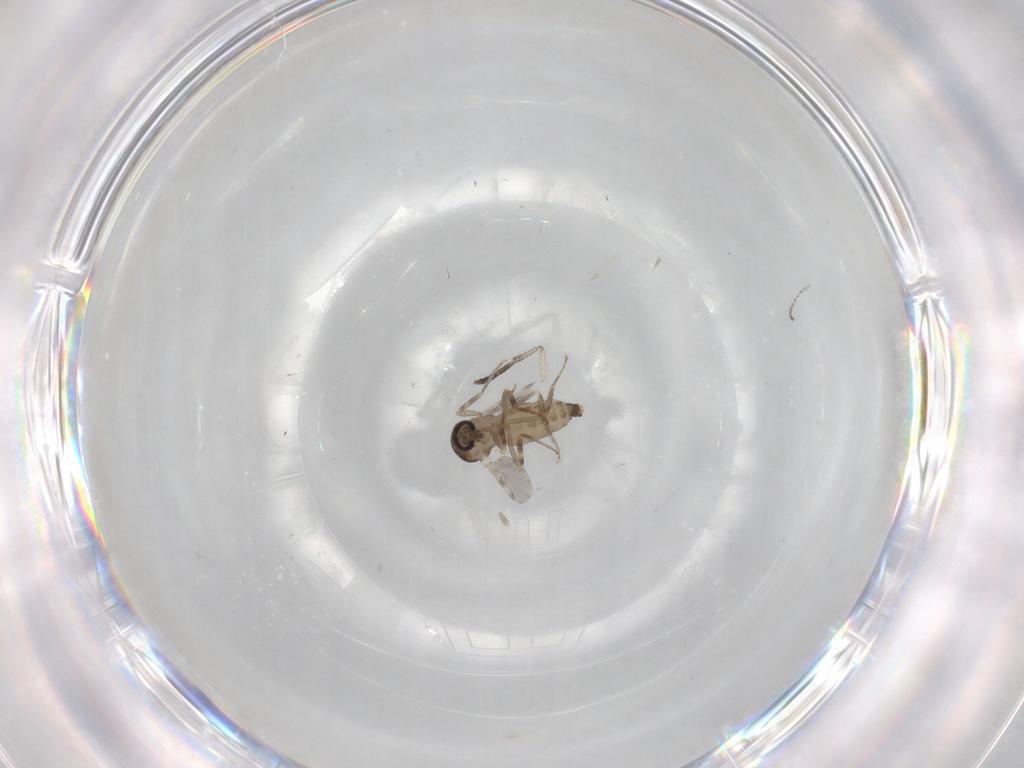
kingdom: Animalia
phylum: Arthropoda
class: Insecta
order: Diptera
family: Ceratopogonidae
